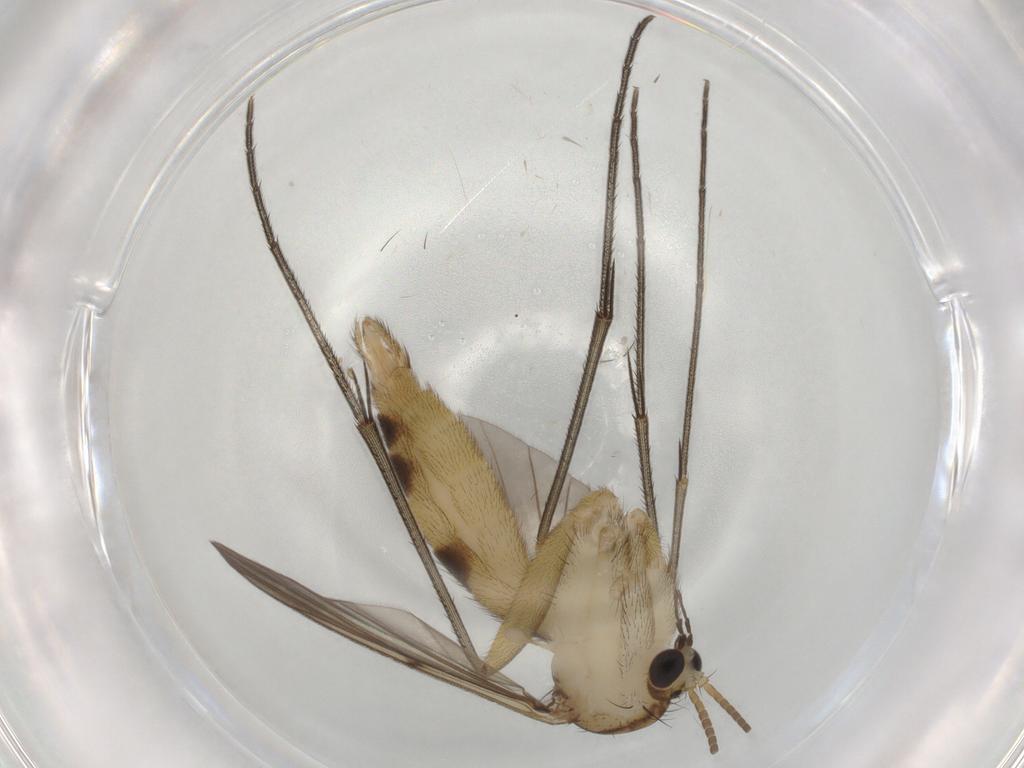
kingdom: Animalia
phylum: Arthropoda
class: Insecta
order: Diptera
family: Mycetophilidae
